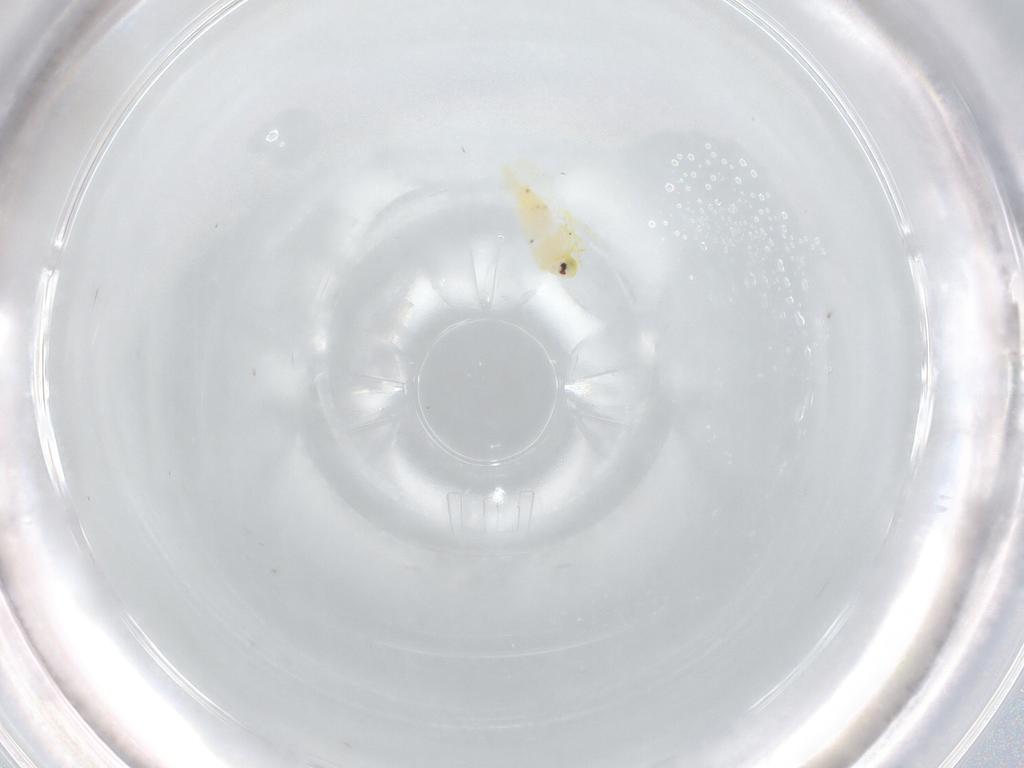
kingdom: Animalia
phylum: Arthropoda
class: Insecta
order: Hemiptera
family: Aleyrodidae
